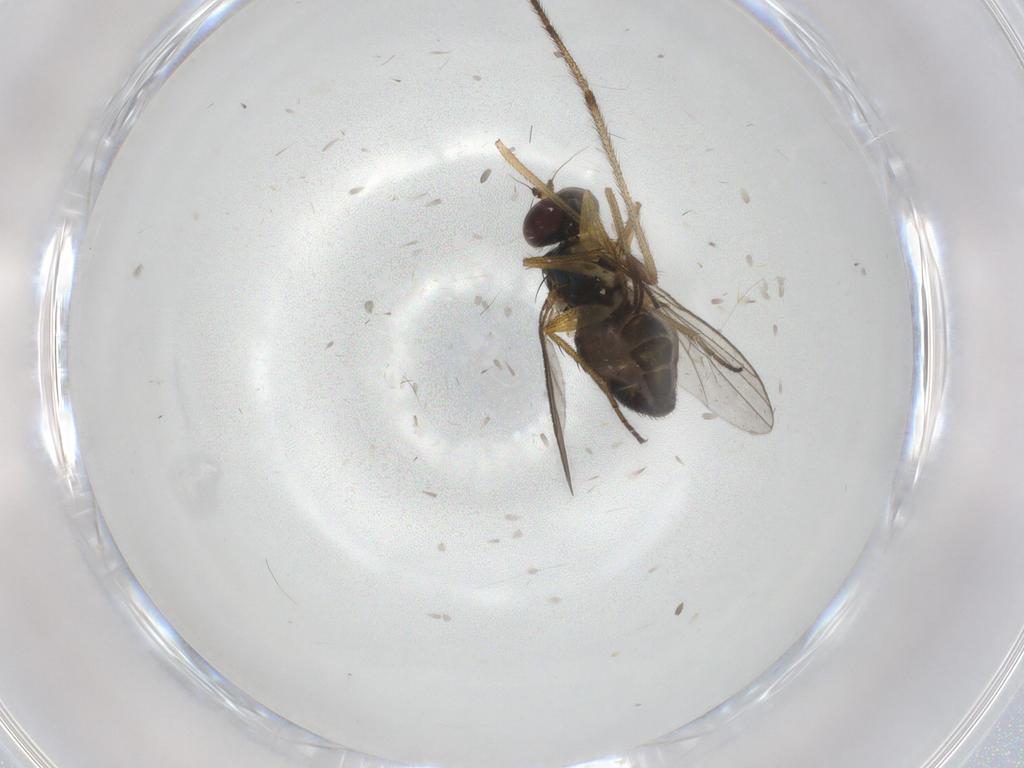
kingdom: Animalia
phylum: Arthropoda
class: Insecta
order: Diptera
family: Limoniidae
